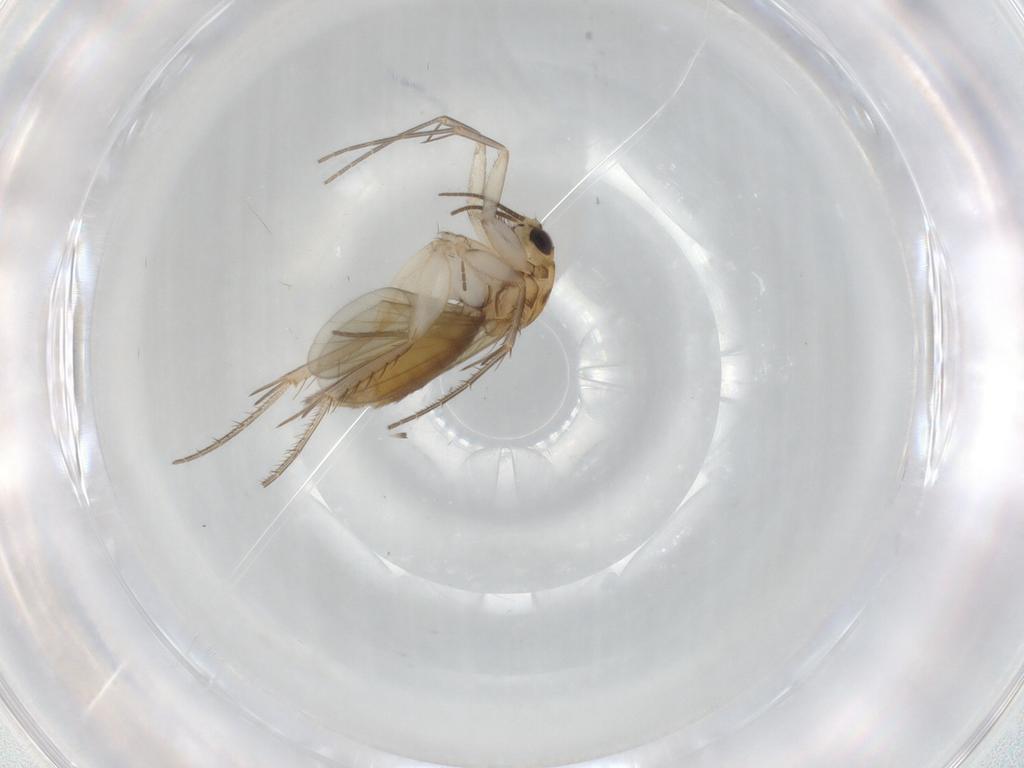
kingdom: Animalia
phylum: Arthropoda
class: Insecta
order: Diptera
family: Mycetophilidae
